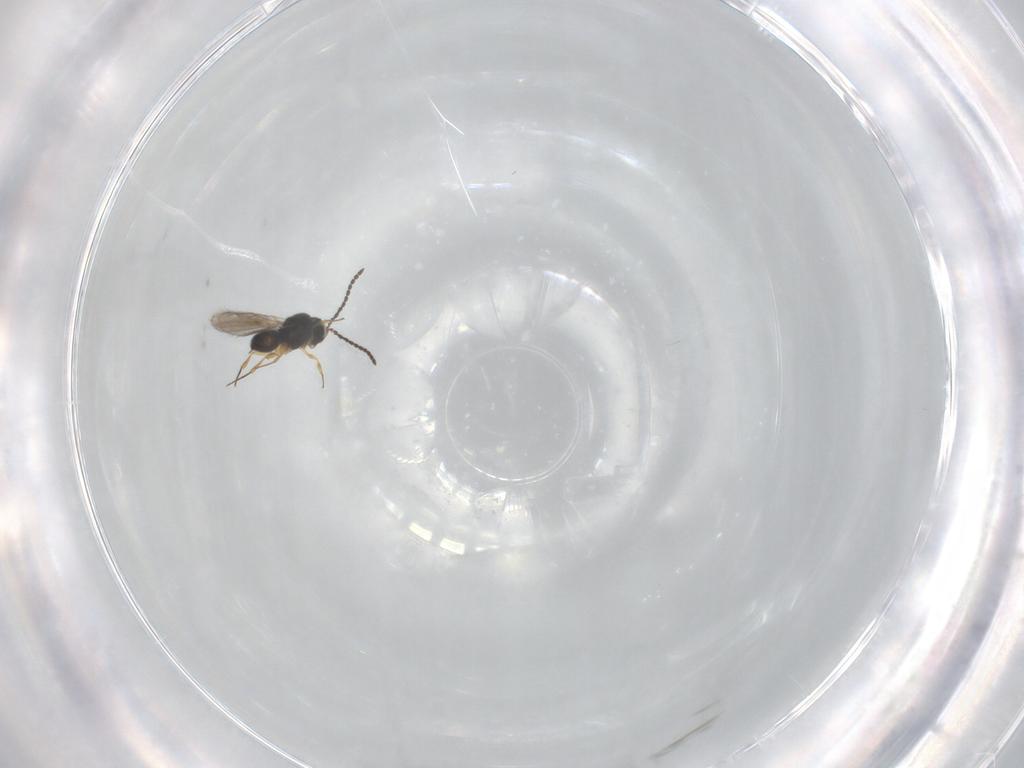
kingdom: Animalia
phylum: Arthropoda
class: Insecta
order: Hymenoptera
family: Scelionidae
